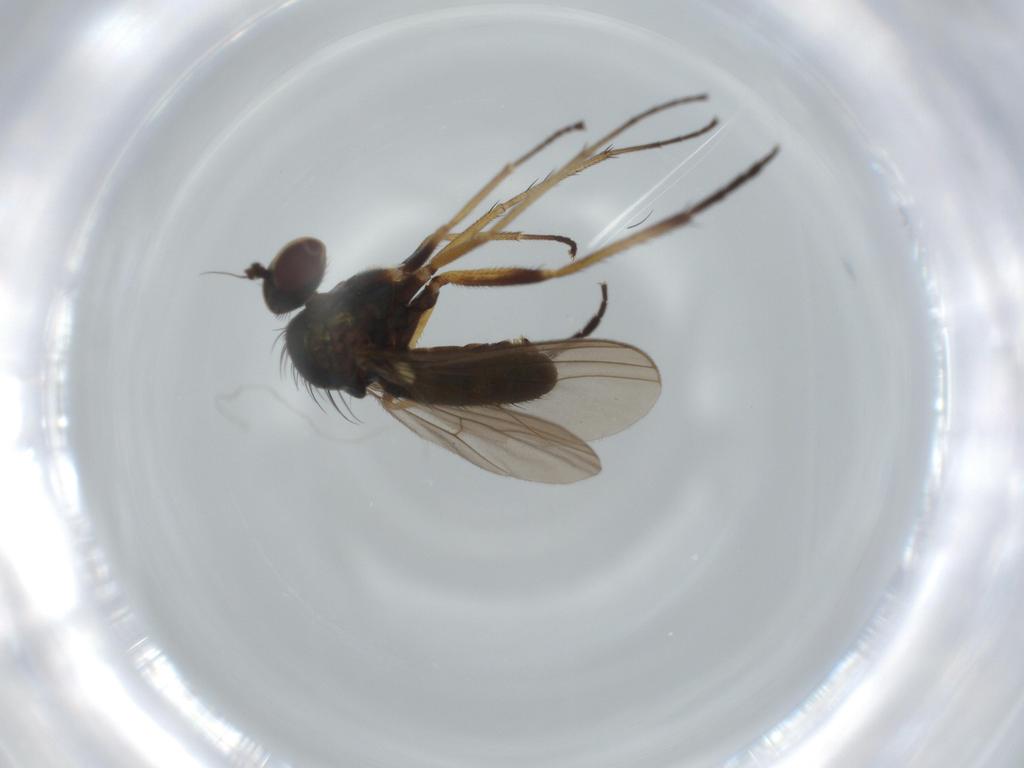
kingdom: Animalia
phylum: Arthropoda
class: Insecta
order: Diptera
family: Dolichopodidae
